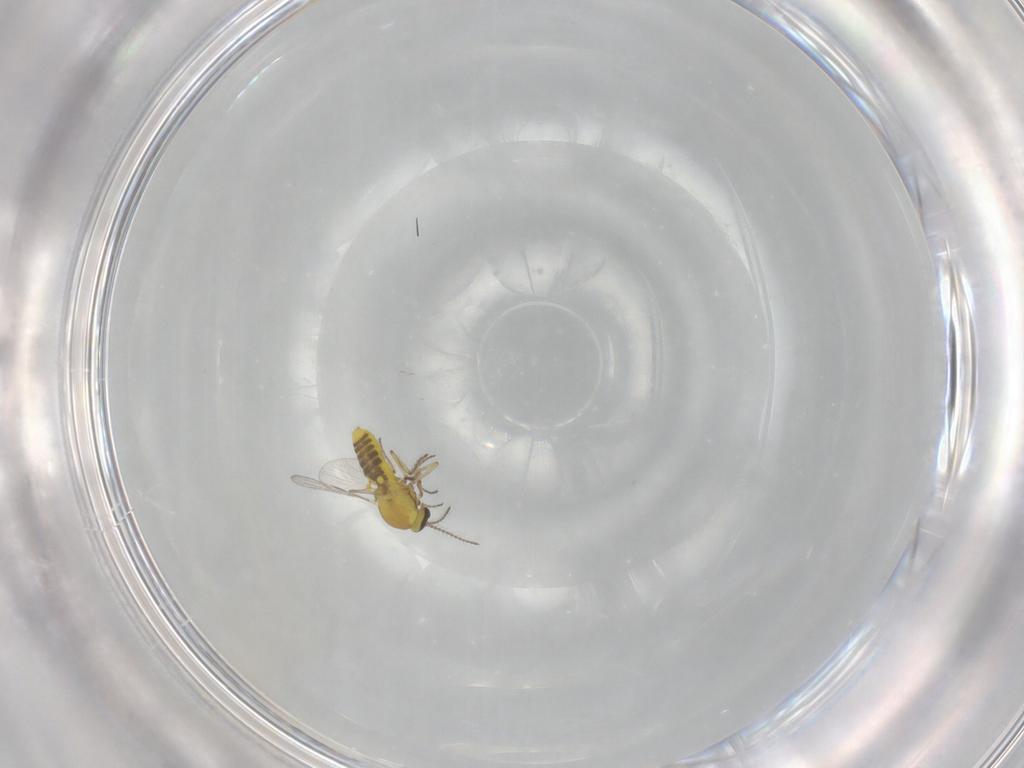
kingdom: Animalia
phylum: Arthropoda
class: Insecta
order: Diptera
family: Ceratopogonidae
